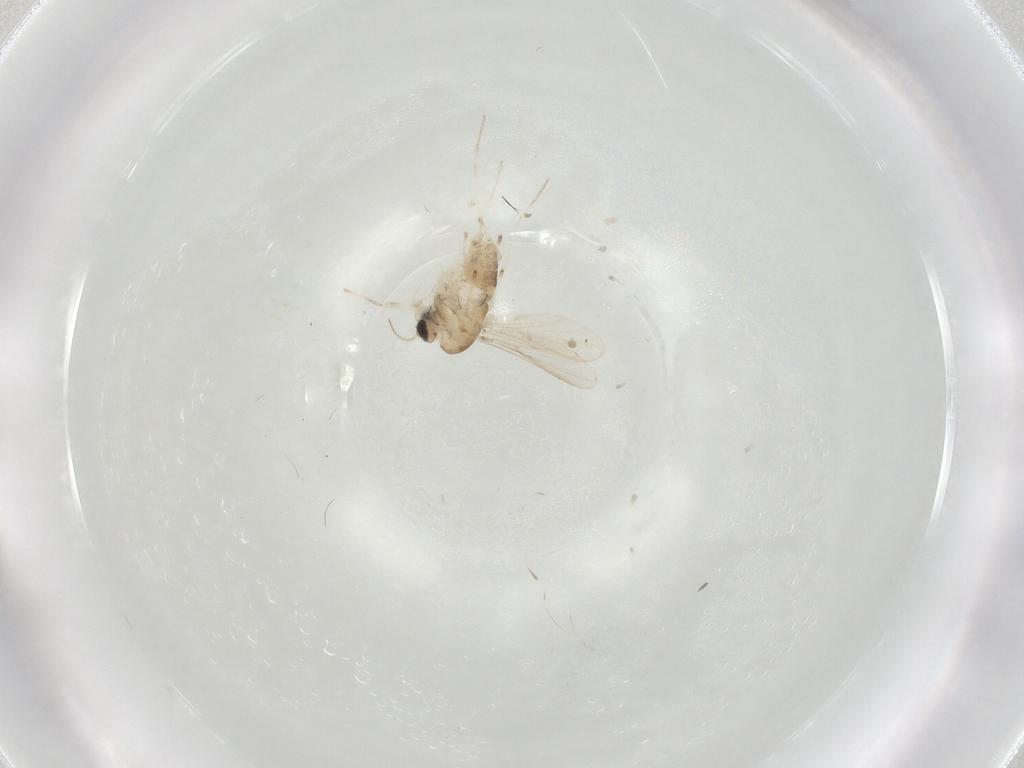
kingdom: Animalia
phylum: Arthropoda
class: Insecta
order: Diptera
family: Chironomidae
